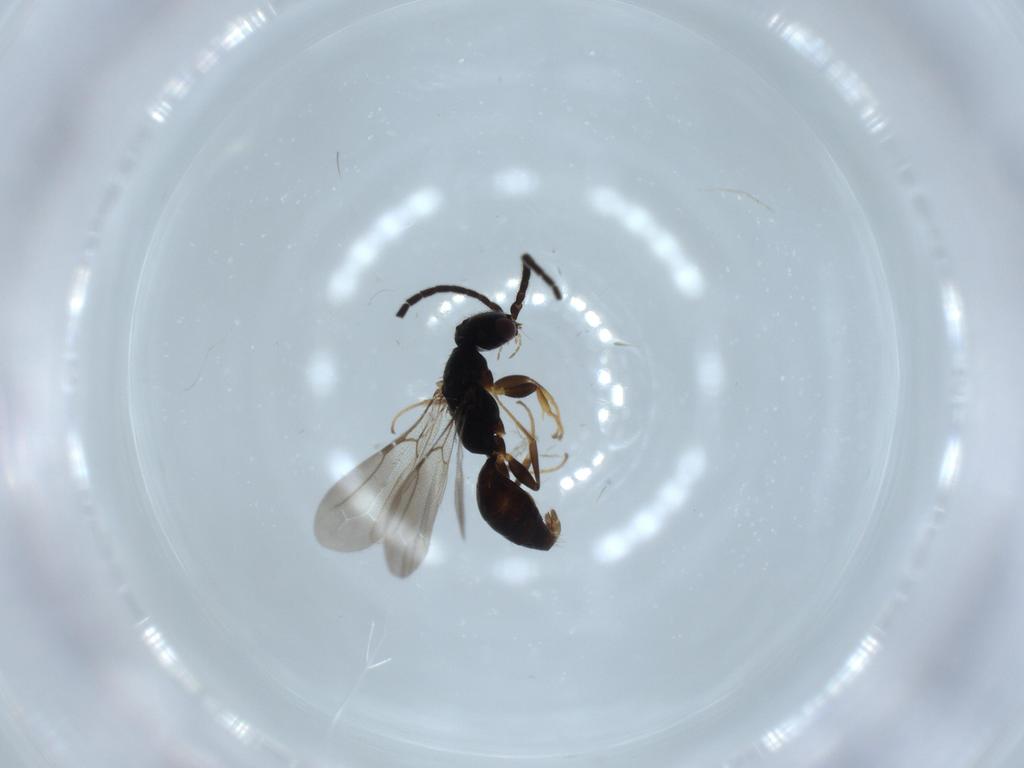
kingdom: Animalia
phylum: Arthropoda
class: Insecta
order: Hymenoptera
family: Bethylidae
